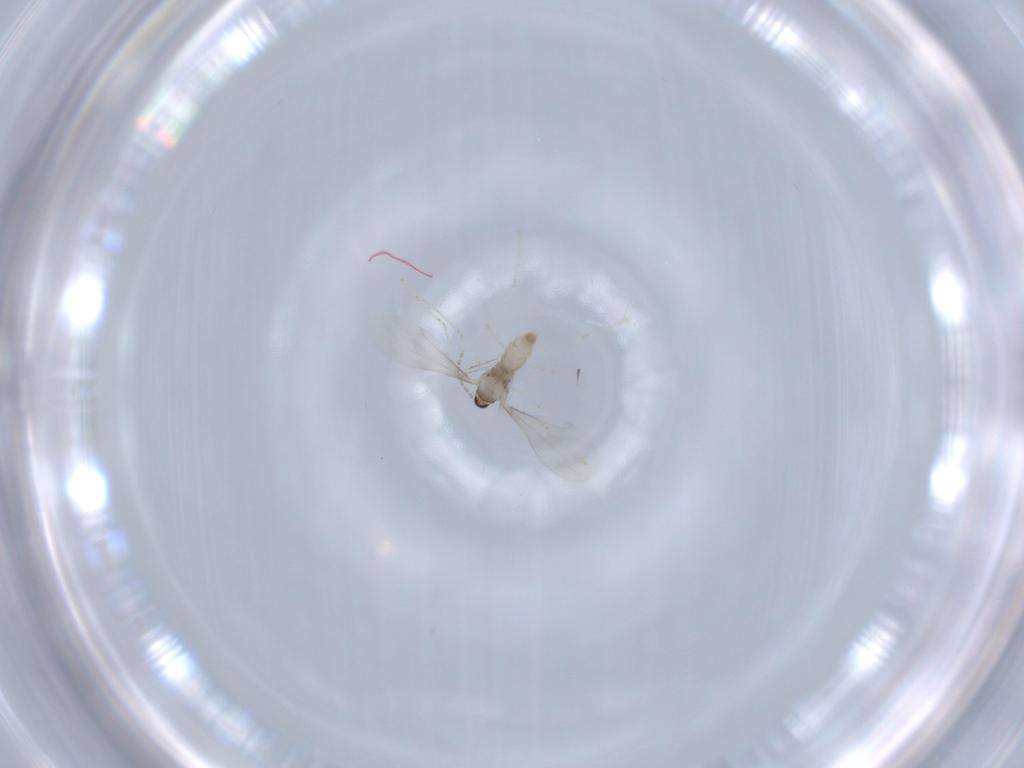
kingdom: Animalia
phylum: Arthropoda
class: Insecta
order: Diptera
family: Cecidomyiidae
